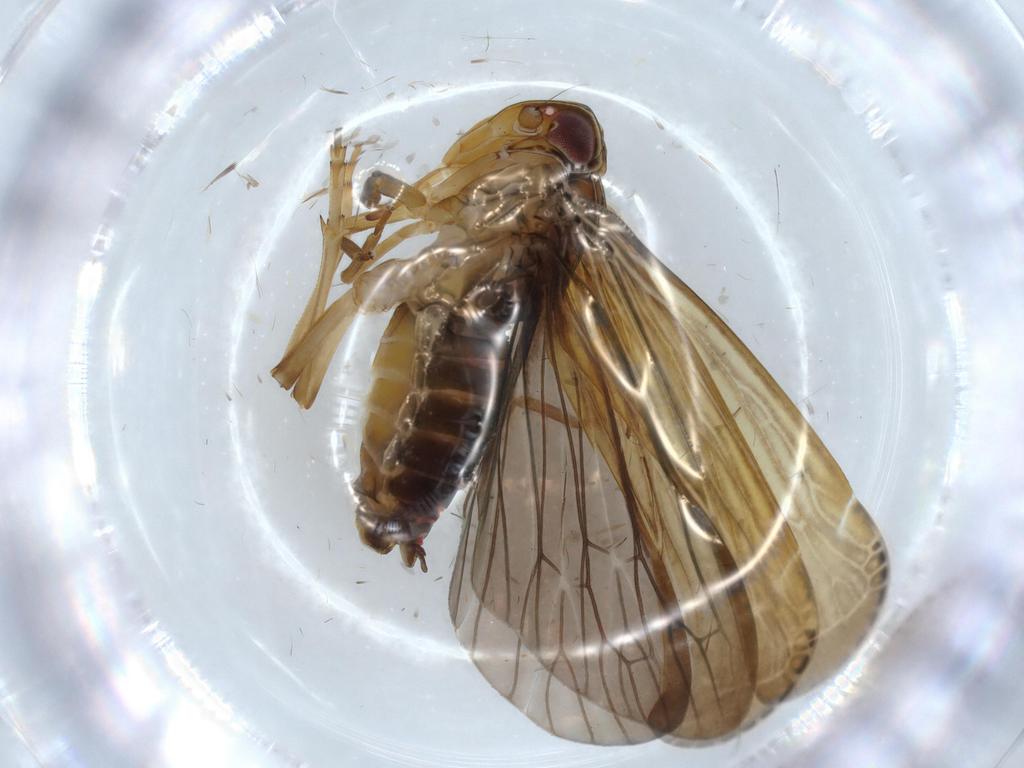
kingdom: Animalia
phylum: Arthropoda
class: Insecta
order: Hemiptera
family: Achilidae
